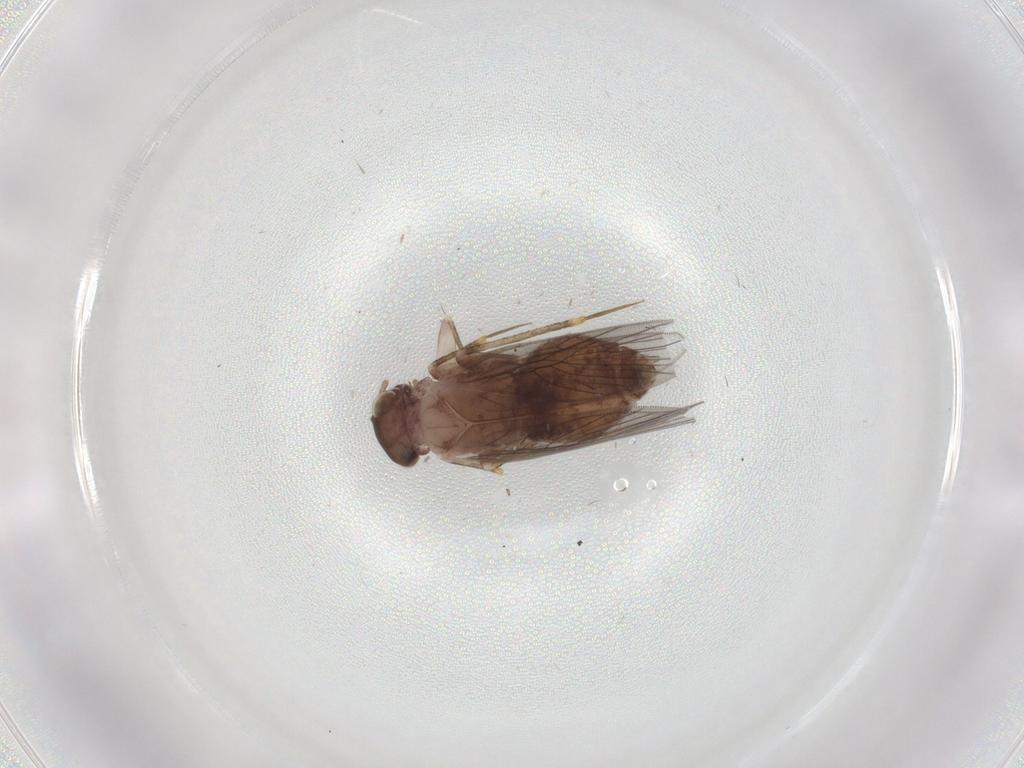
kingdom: Animalia
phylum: Arthropoda
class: Insecta
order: Psocodea
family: Lepidopsocidae
